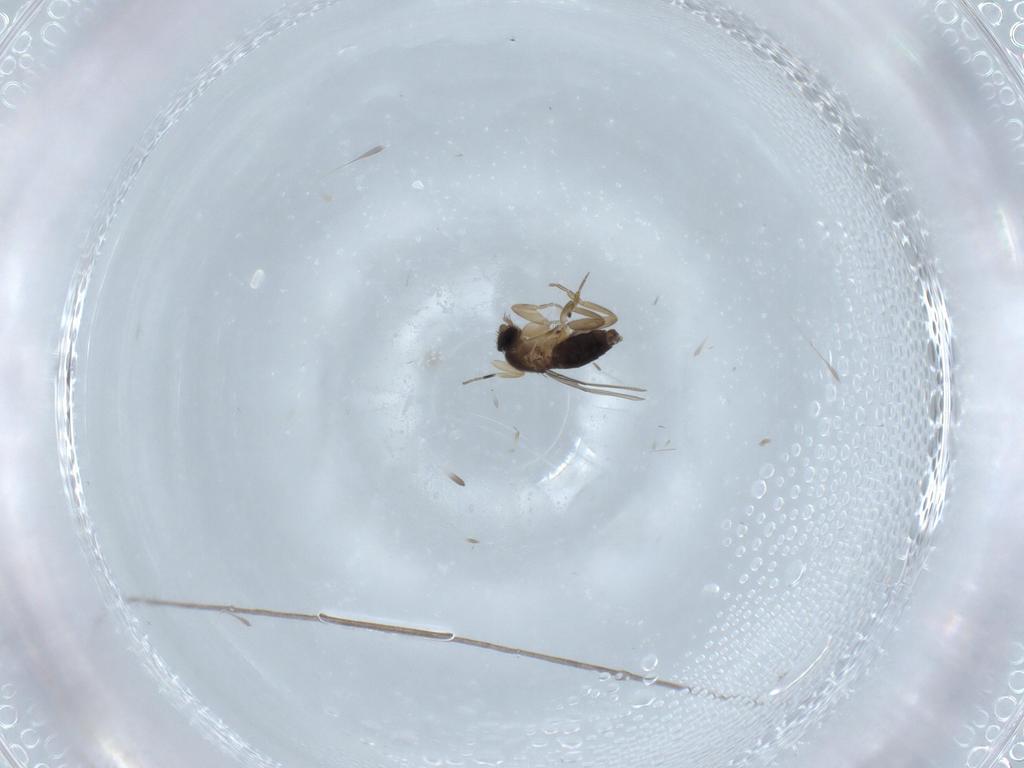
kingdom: Animalia
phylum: Arthropoda
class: Insecta
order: Diptera
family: Phoridae
